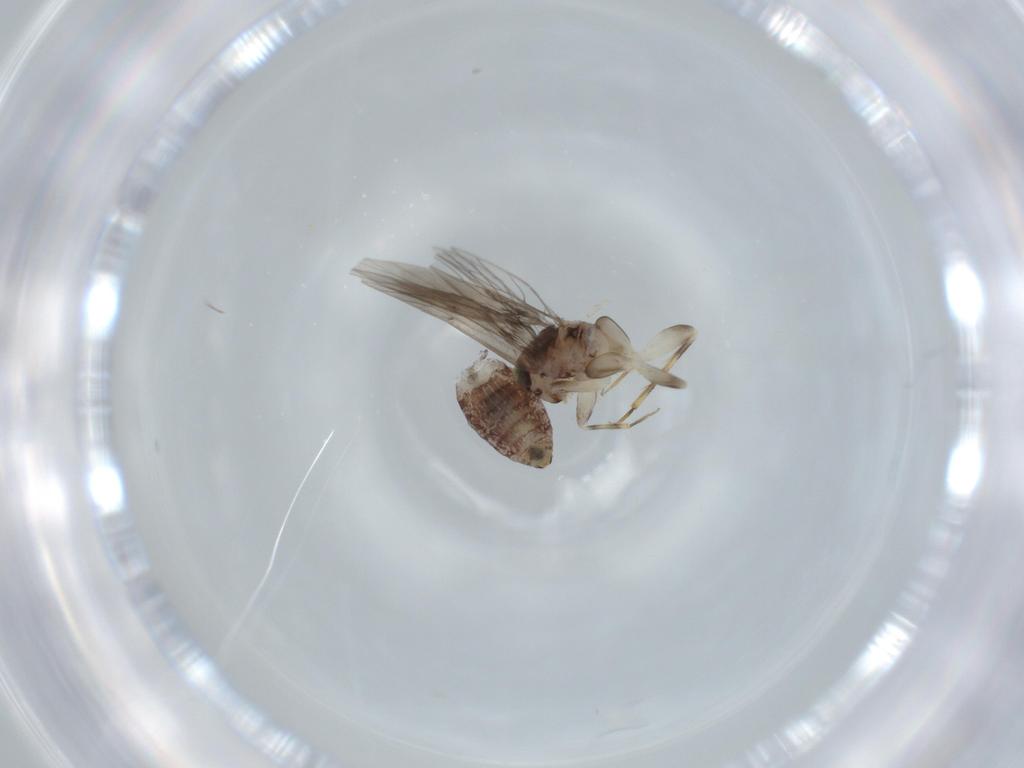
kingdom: Animalia
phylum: Arthropoda
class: Insecta
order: Psocodea
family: Lepidopsocidae
